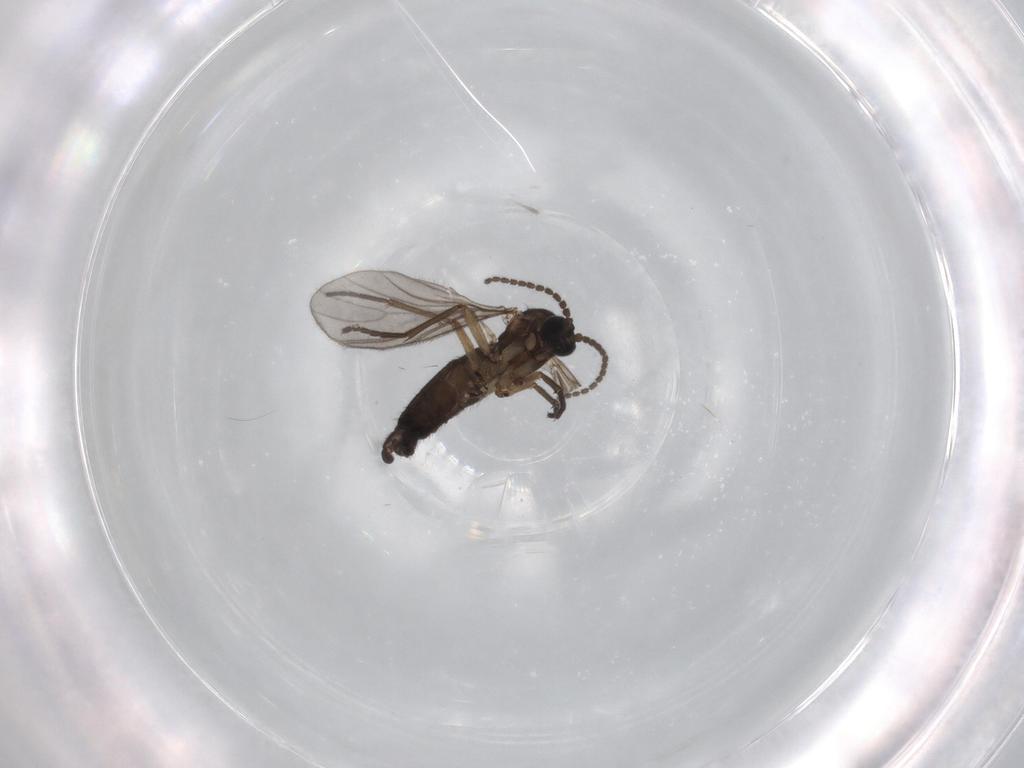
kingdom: Animalia
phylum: Arthropoda
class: Insecta
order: Diptera
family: Sciaridae
